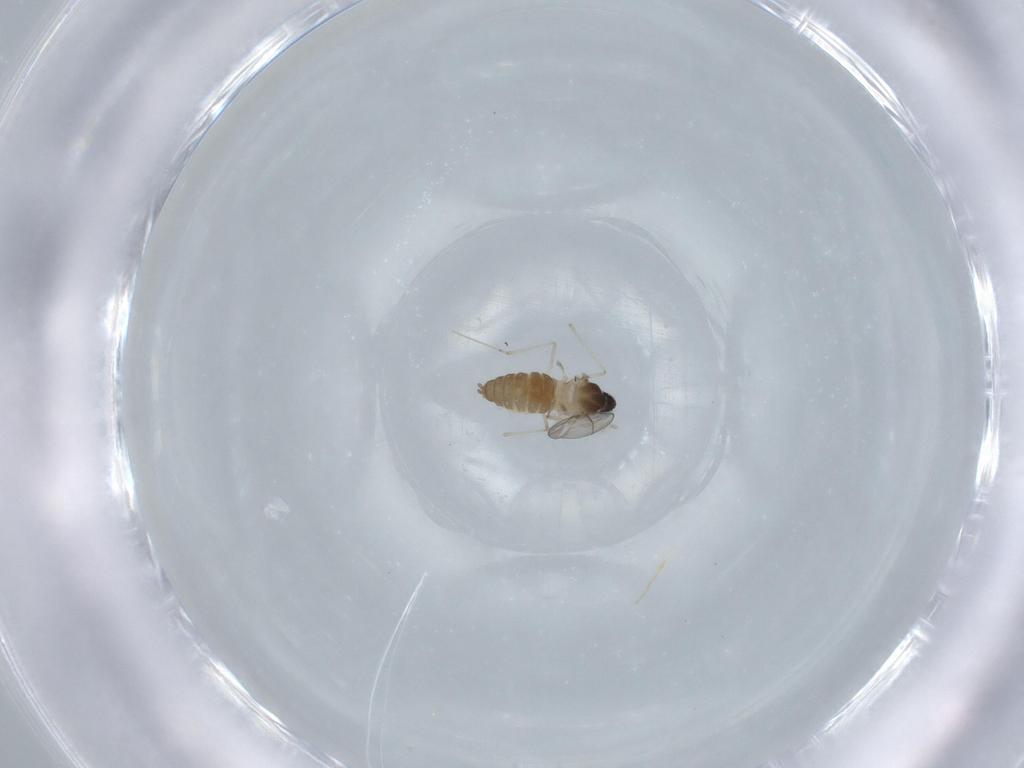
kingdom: Animalia
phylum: Arthropoda
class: Insecta
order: Diptera
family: Cecidomyiidae
